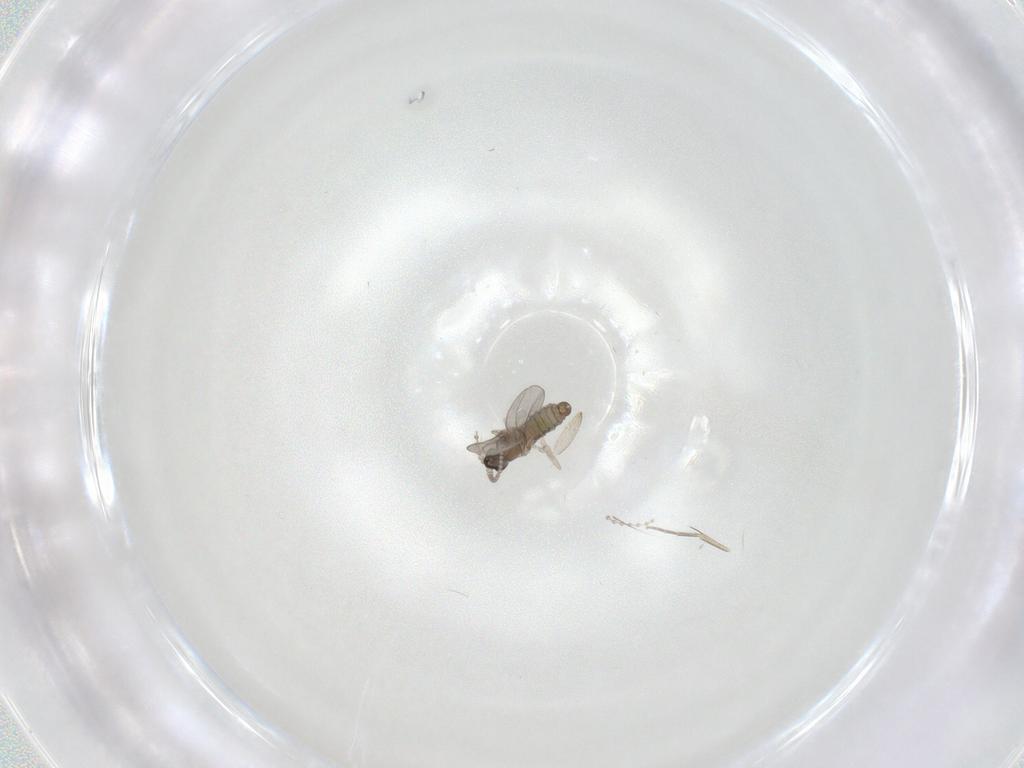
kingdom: Animalia
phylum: Arthropoda
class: Insecta
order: Diptera
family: Cecidomyiidae
